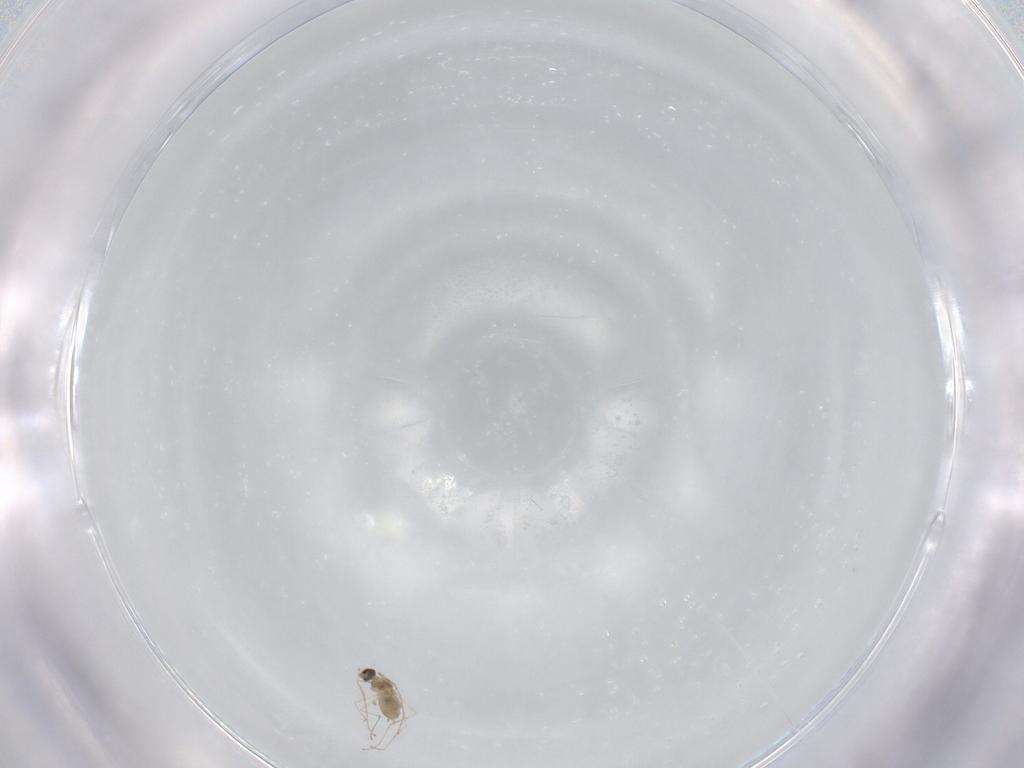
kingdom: Animalia
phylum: Arthropoda
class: Insecta
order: Diptera
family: Cecidomyiidae
